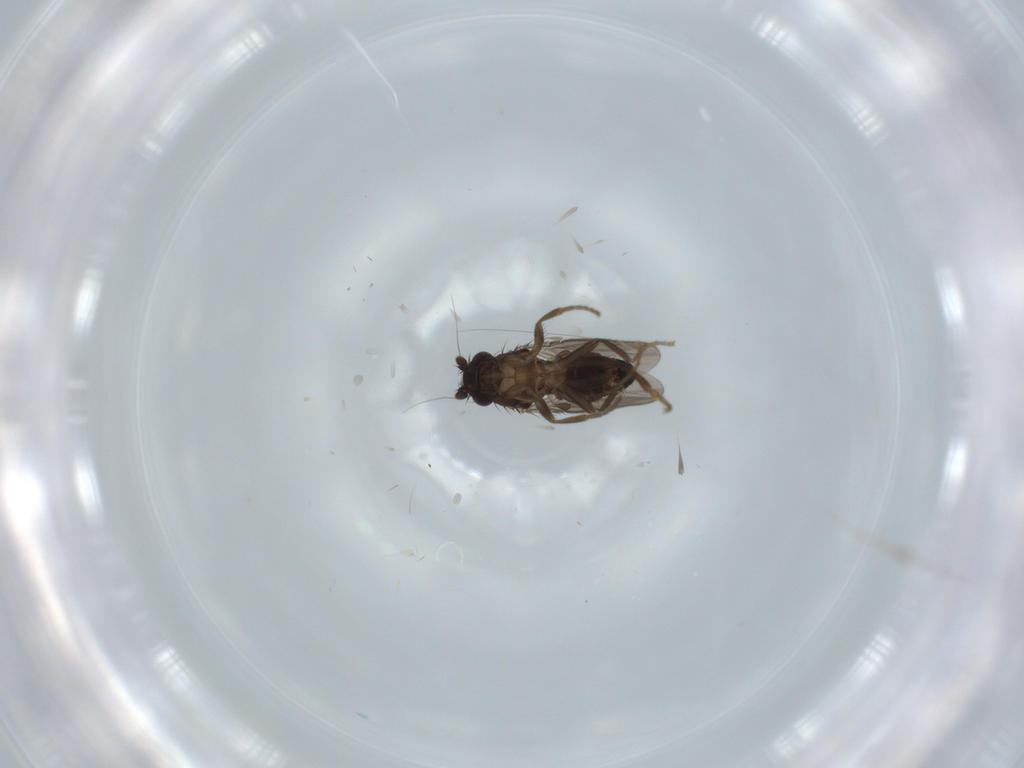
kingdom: Animalia
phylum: Arthropoda
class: Insecta
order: Diptera
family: Sphaeroceridae
